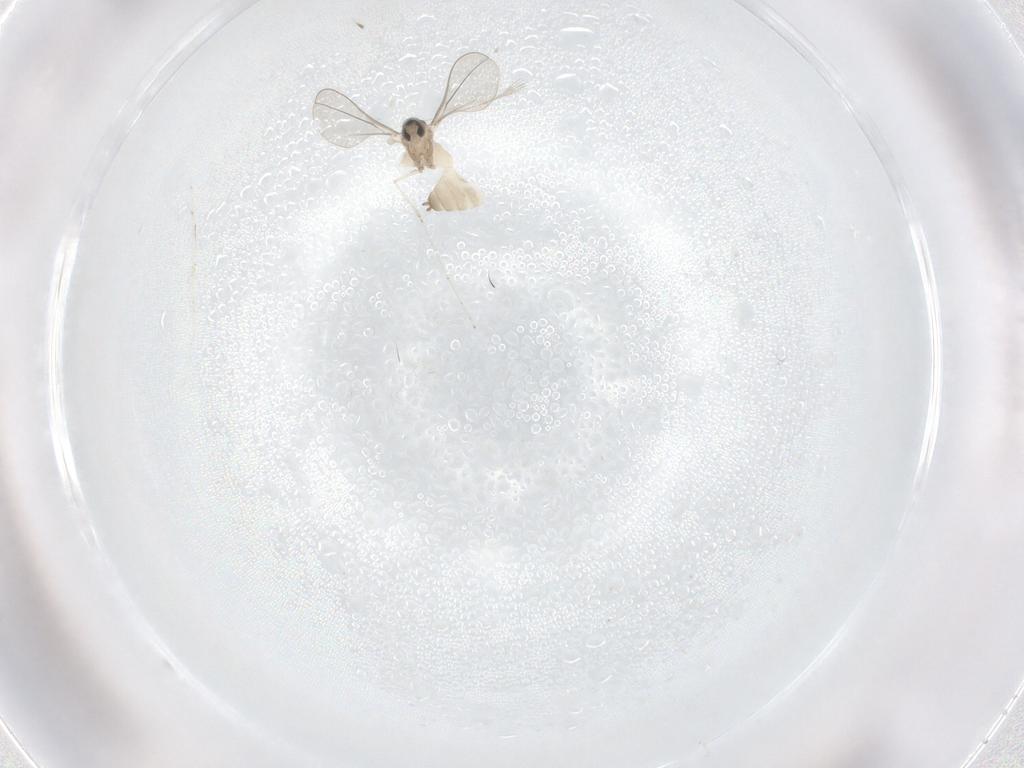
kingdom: Animalia
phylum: Arthropoda
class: Insecta
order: Diptera
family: Cecidomyiidae
